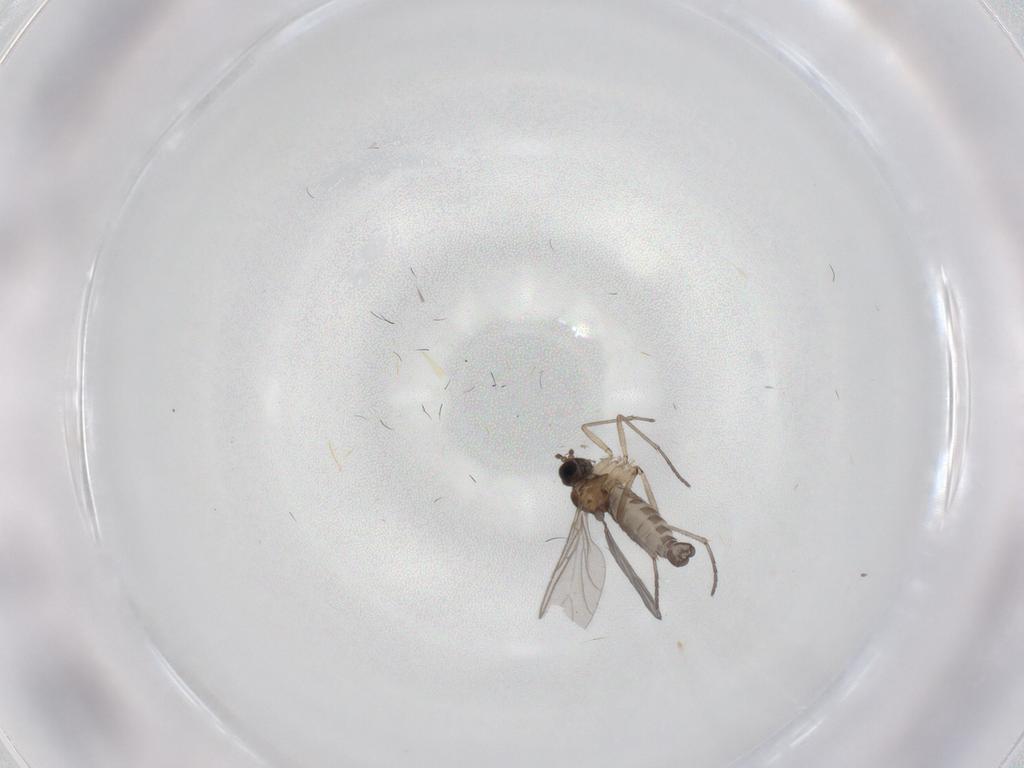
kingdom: Animalia
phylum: Arthropoda
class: Insecta
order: Diptera
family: Sciaridae
